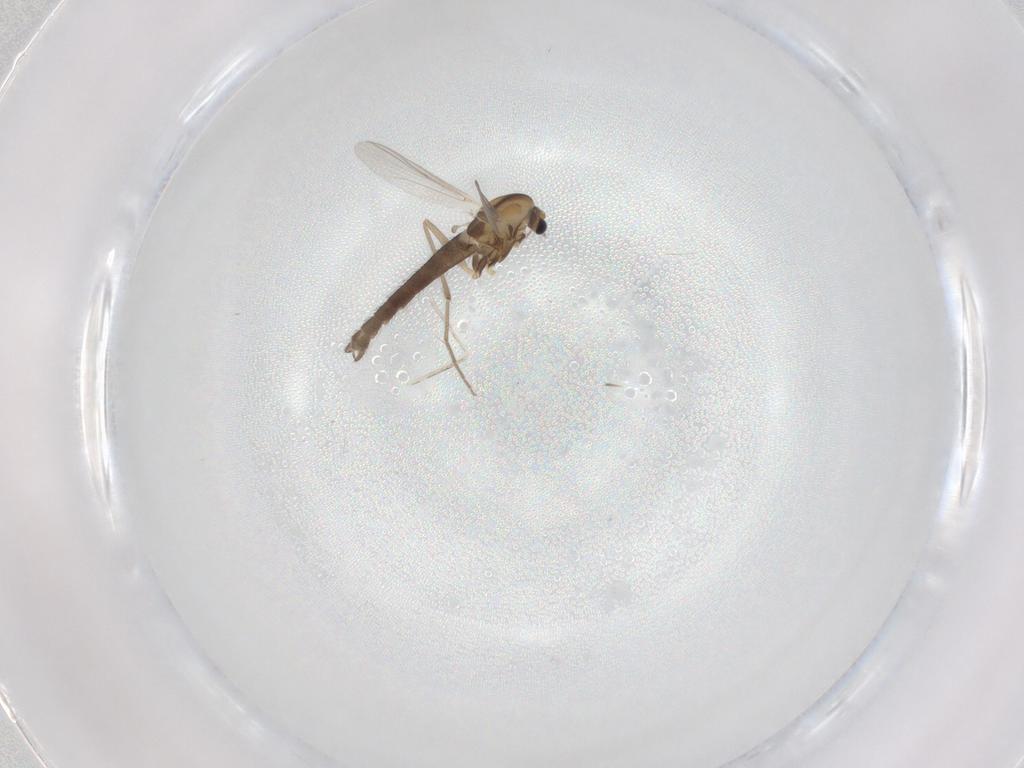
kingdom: Animalia
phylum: Arthropoda
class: Insecta
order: Diptera
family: Chironomidae
